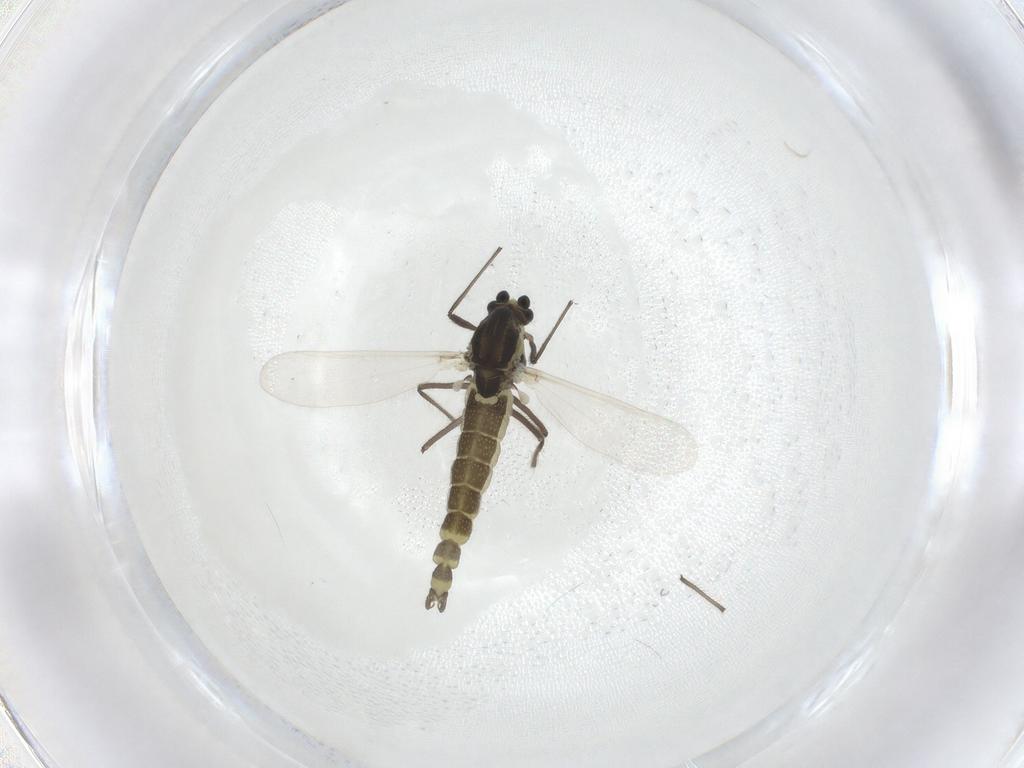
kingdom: Animalia
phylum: Arthropoda
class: Insecta
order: Diptera
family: Chironomidae
